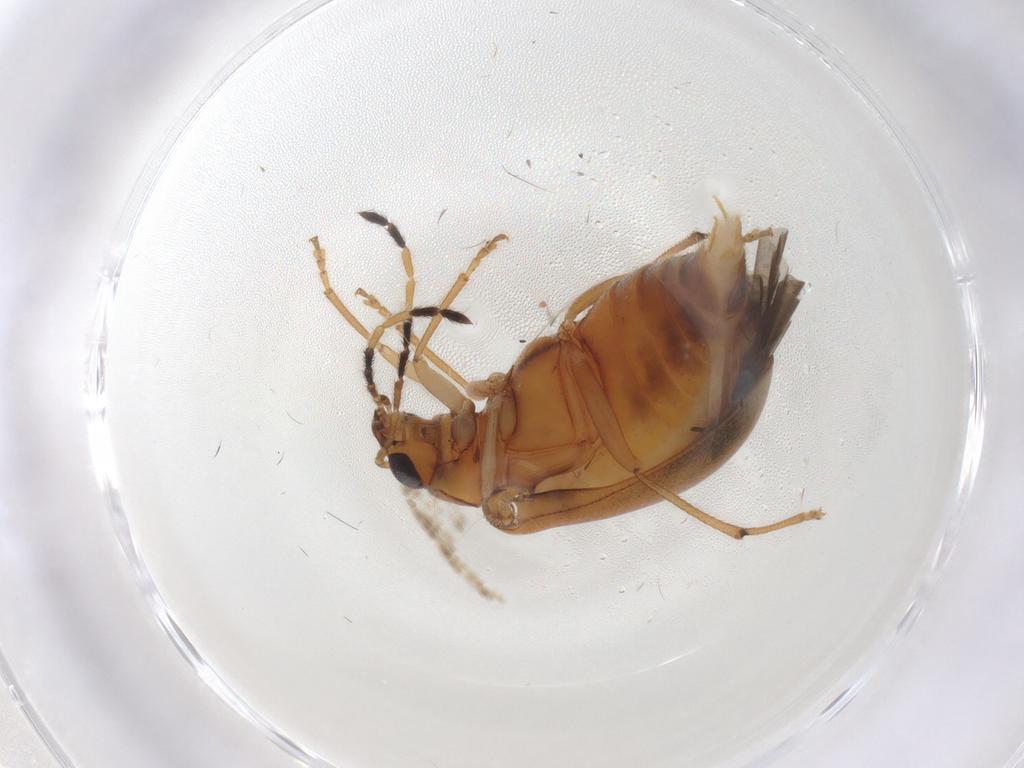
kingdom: Animalia
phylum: Arthropoda
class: Insecta
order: Coleoptera
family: Chrysomelidae
